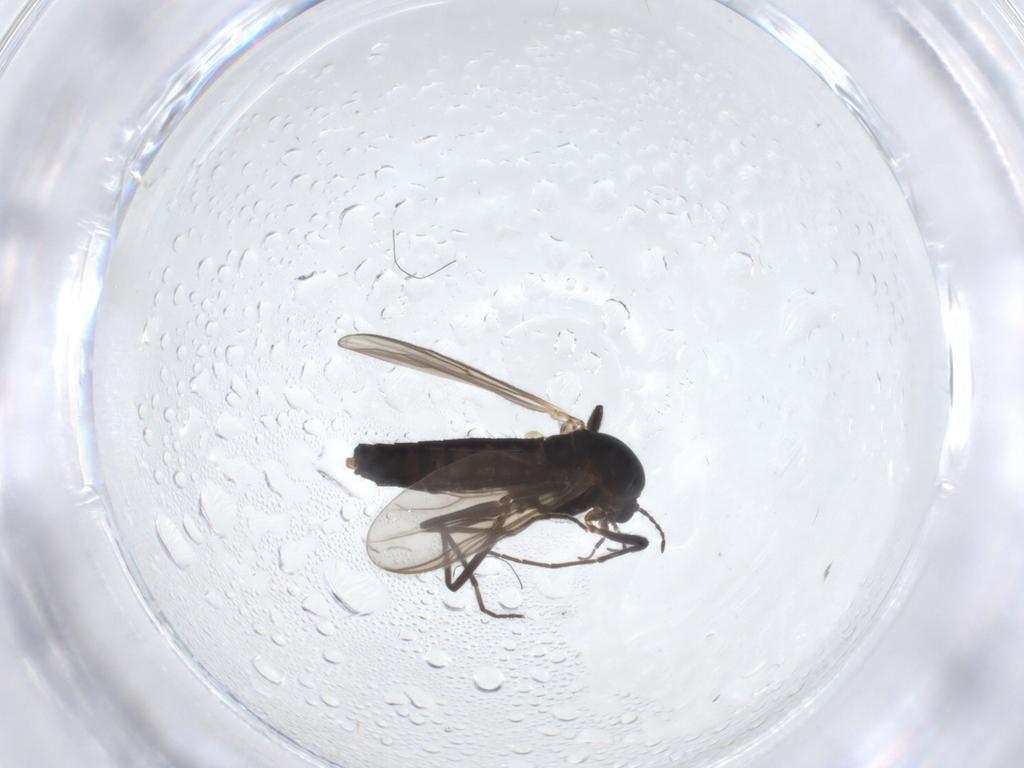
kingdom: Animalia
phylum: Arthropoda
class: Insecta
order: Diptera
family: Chironomidae
